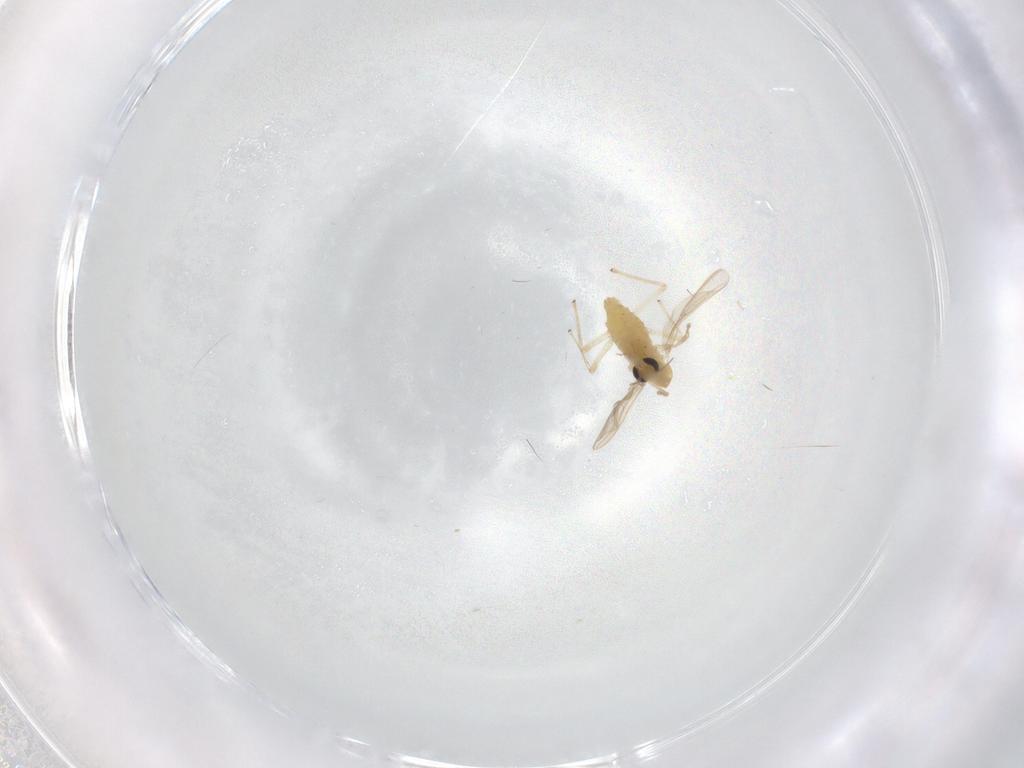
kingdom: Animalia
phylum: Arthropoda
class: Insecta
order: Diptera
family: Chironomidae
